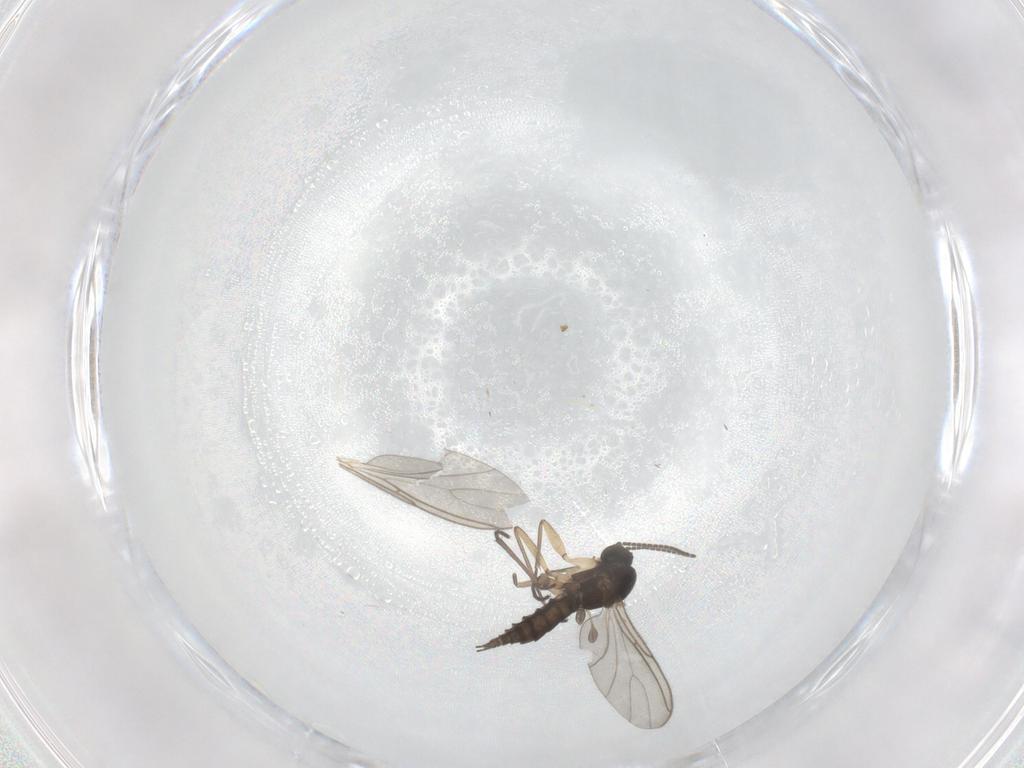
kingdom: Animalia
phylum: Arthropoda
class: Insecta
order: Diptera
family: Sciaridae
